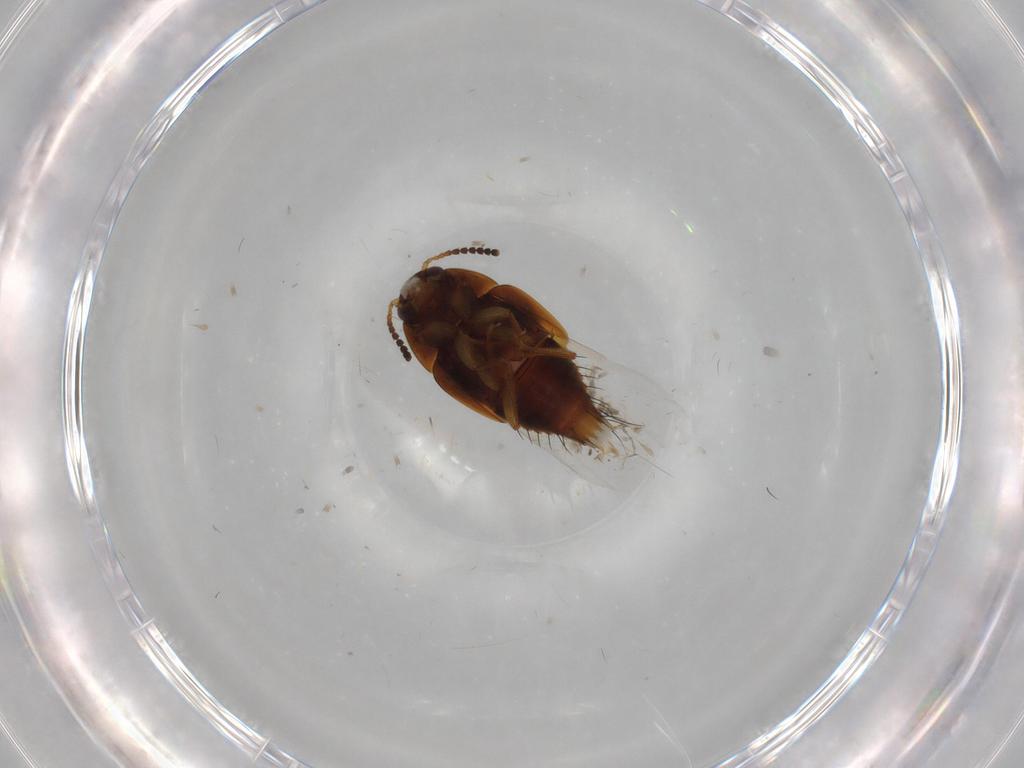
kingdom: Animalia
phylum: Arthropoda
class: Insecta
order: Coleoptera
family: Staphylinidae
